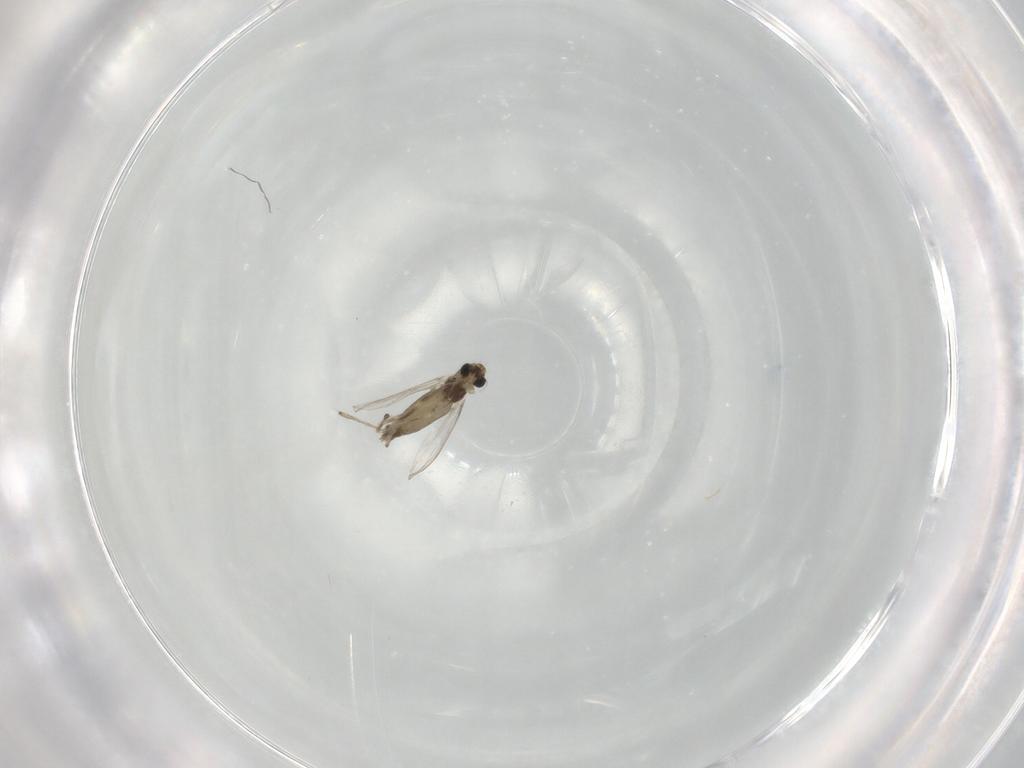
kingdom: Animalia
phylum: Arthropoda
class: Insecta
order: Diptera
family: Chironomidae
